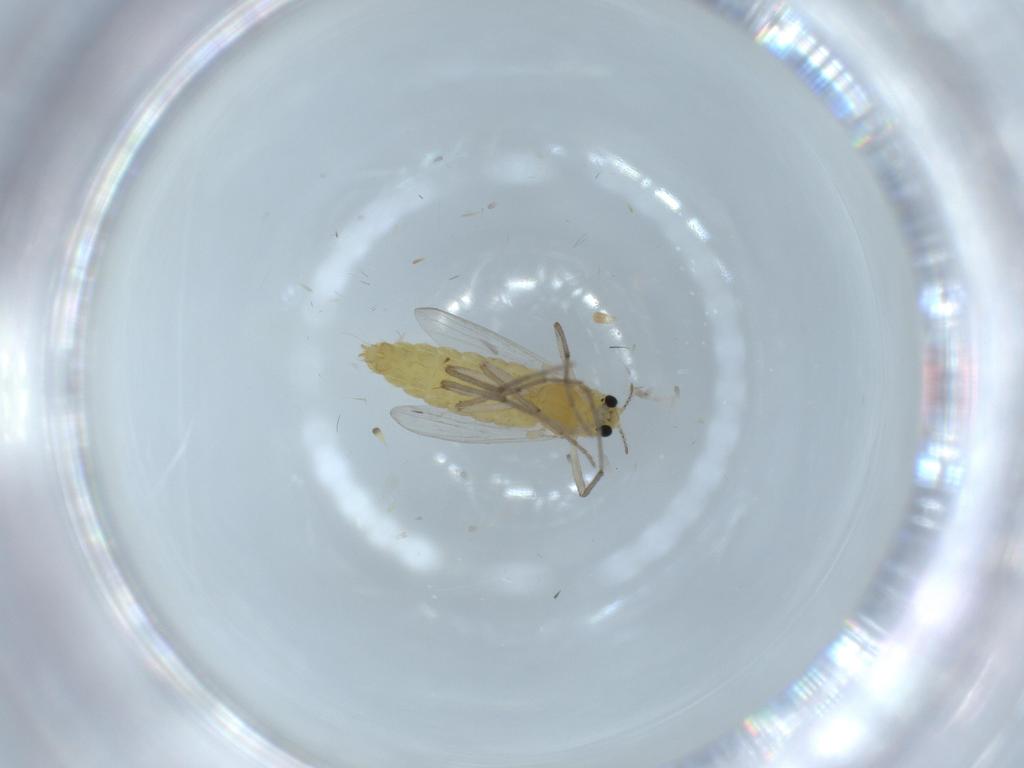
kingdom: Animalia
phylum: Arthropoda
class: Insecta
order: Diptera
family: Chironomidae
